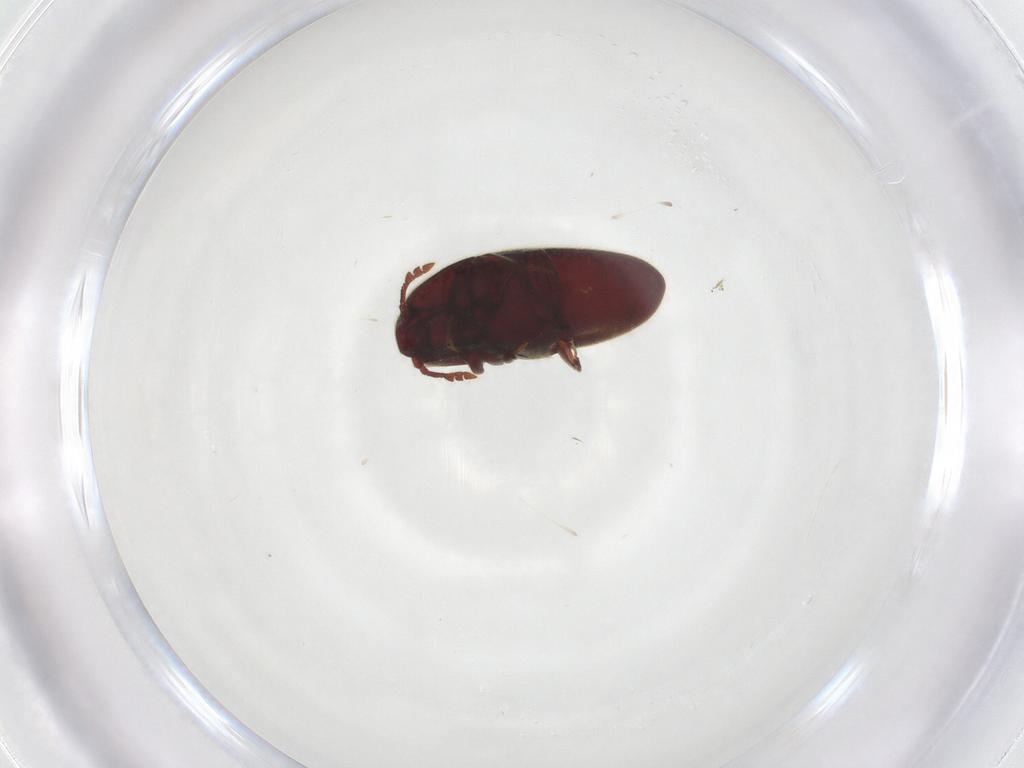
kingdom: Animalia
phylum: Arthropoda
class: Insecta
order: Coleoptera
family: Throscidae
